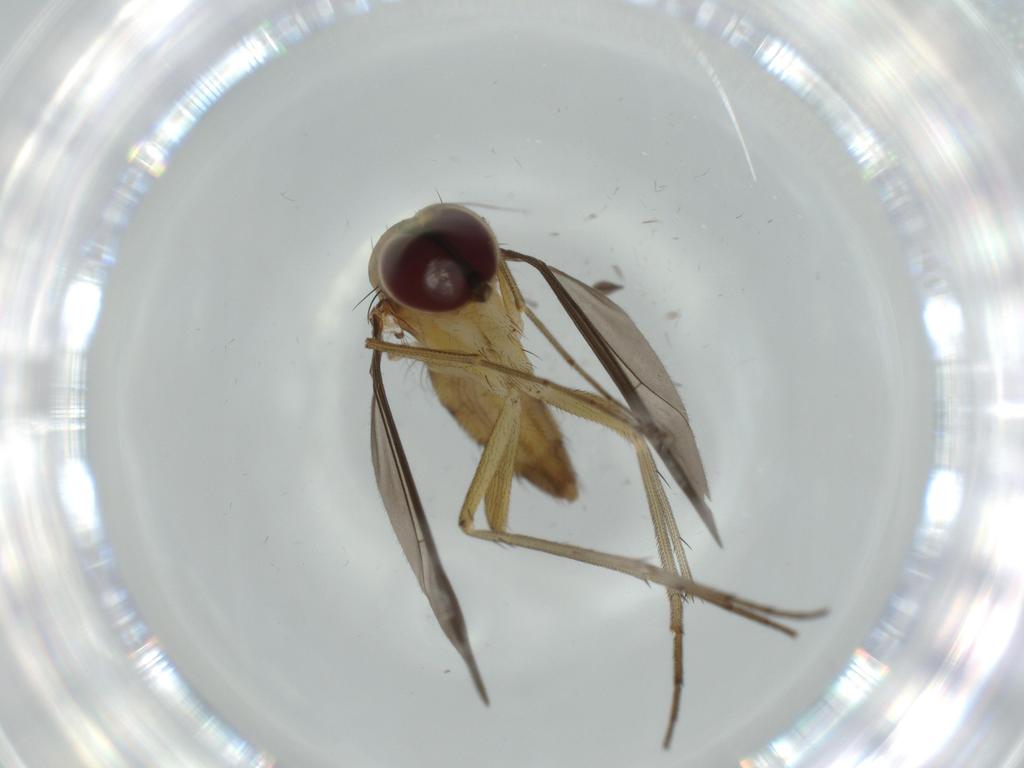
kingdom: Animalia
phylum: Arthropoda
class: Insecta
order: Diptera
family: Dolichopodidae
